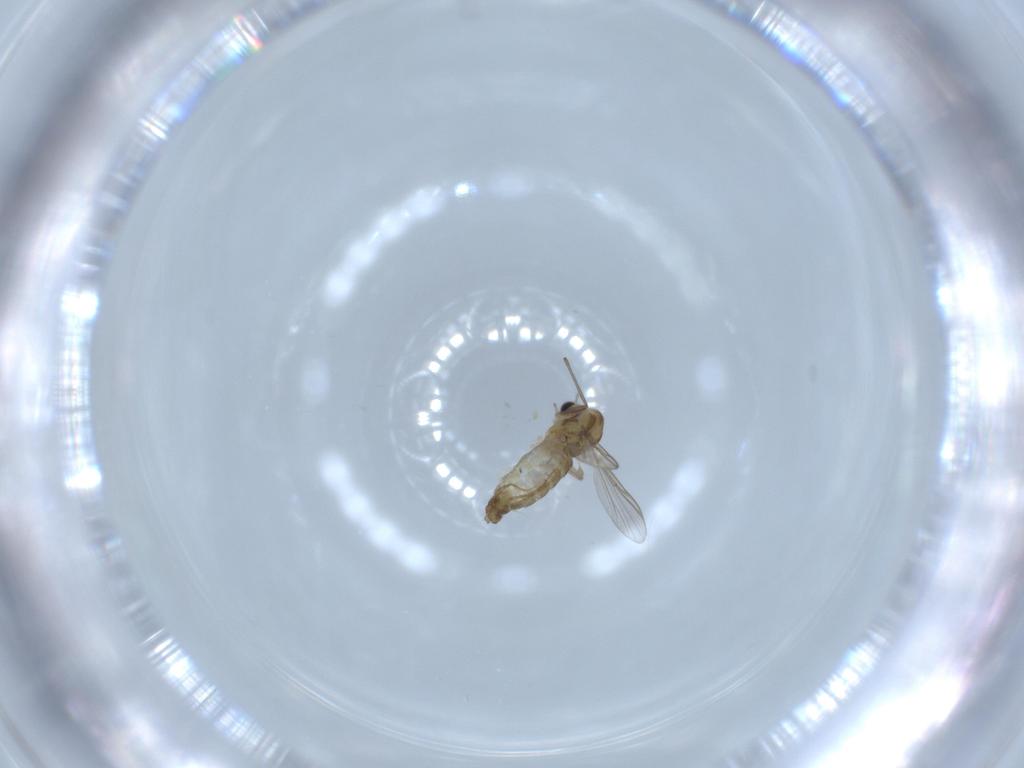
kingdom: Animalia
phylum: Arthropoda
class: Insecta
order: Diptera
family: Chironomidae
